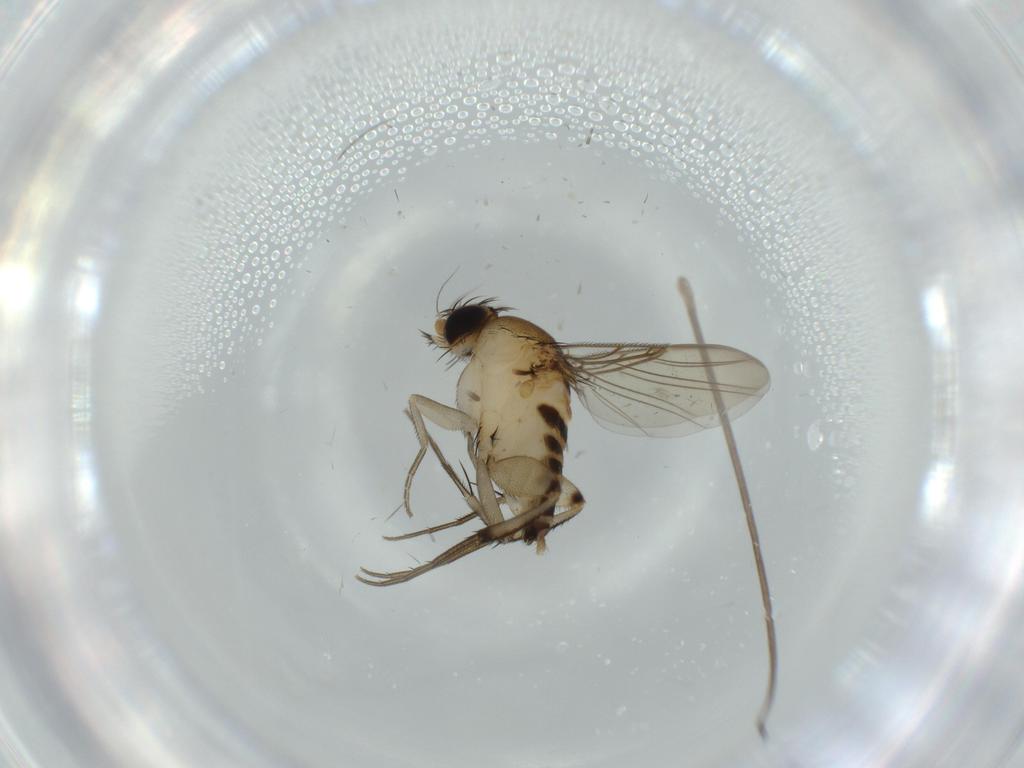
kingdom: Animalia
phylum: Arthropoda
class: Insecta
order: Diptera
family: Phoridae
